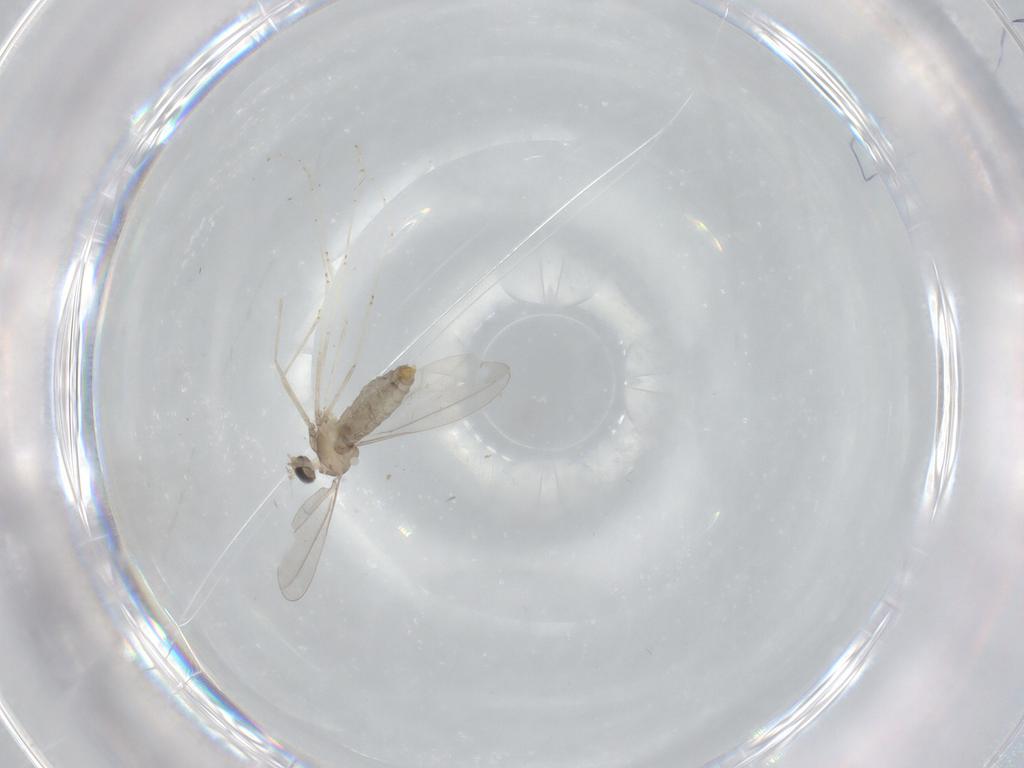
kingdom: Animalia
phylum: Arthropoda
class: Insecta
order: Diptera
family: Cecidomyiidae
